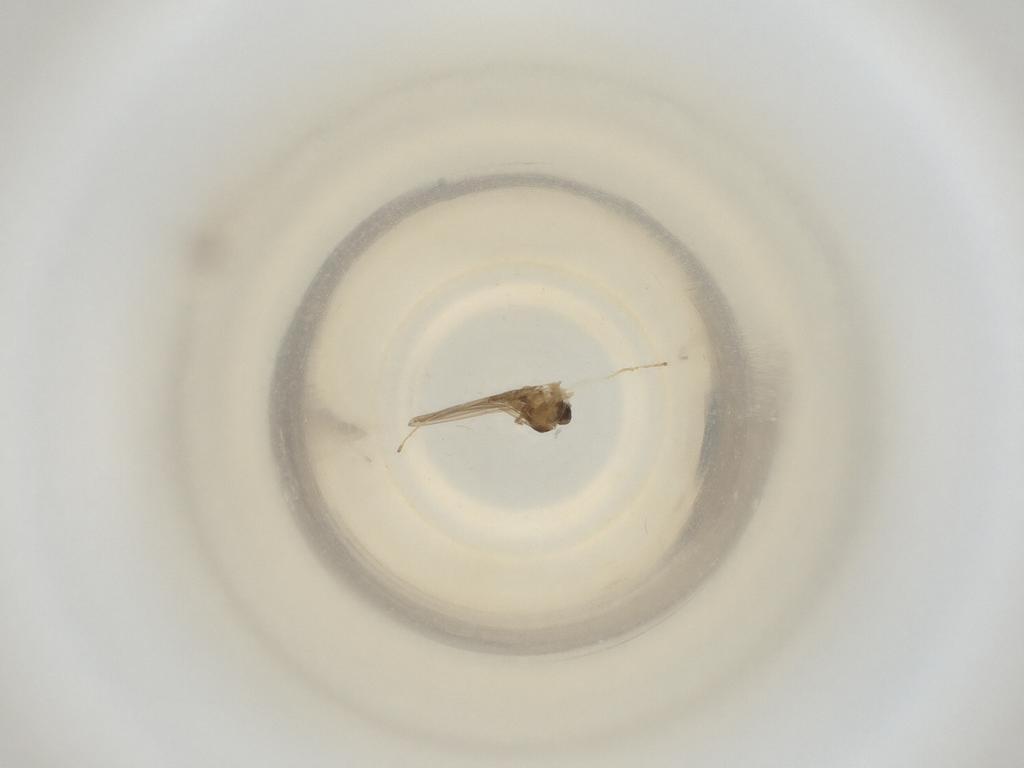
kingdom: Animalia
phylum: Arthropoda
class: Insecta
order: Diptera
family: Cecidomyiidae
